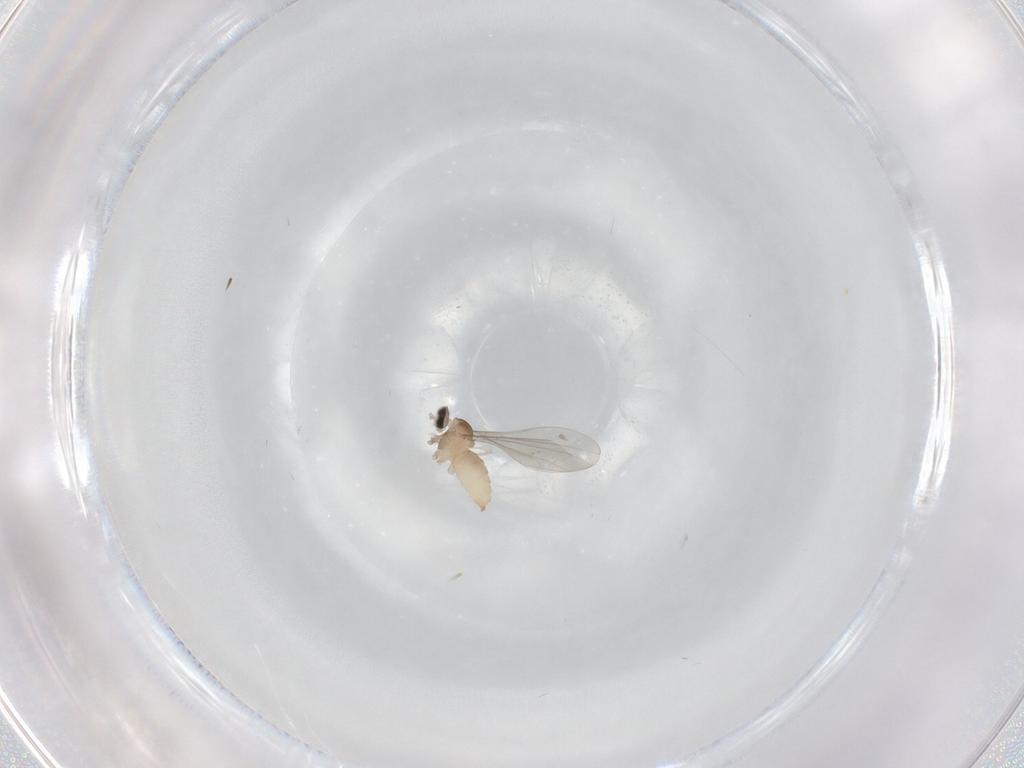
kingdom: Animalia
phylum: Arthropoda
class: Insecta
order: Diptera
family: Cecidomyiidae
